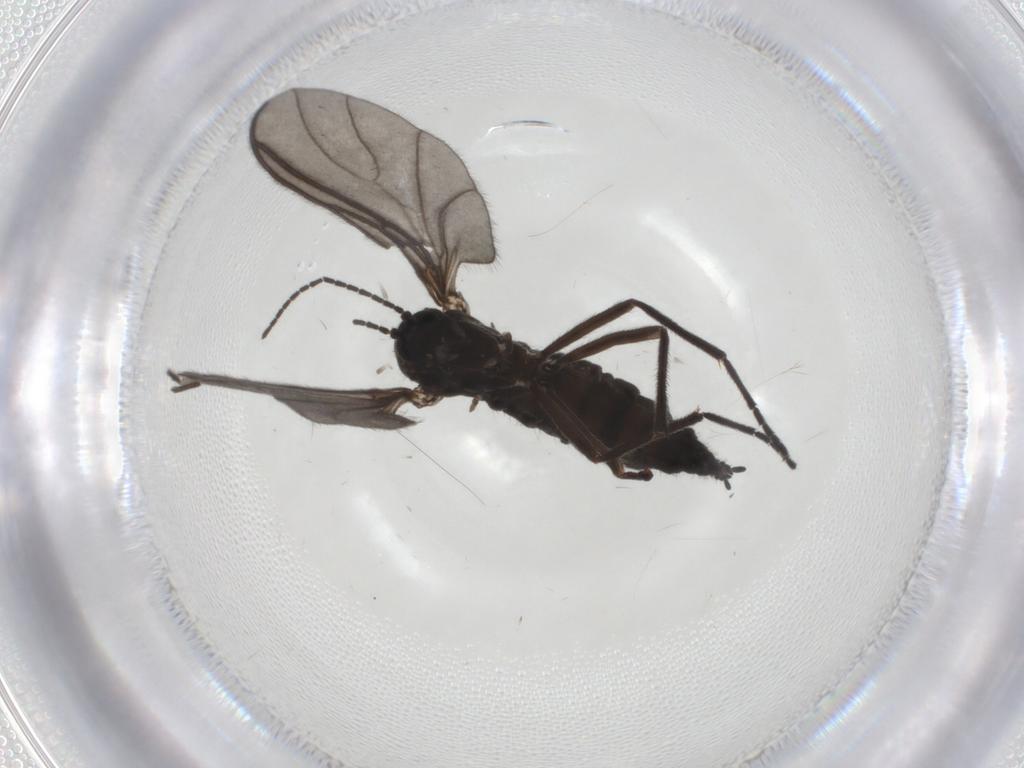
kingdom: Animalia
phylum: Arthropoda
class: Insecta
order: Diptera
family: Sciaridae
